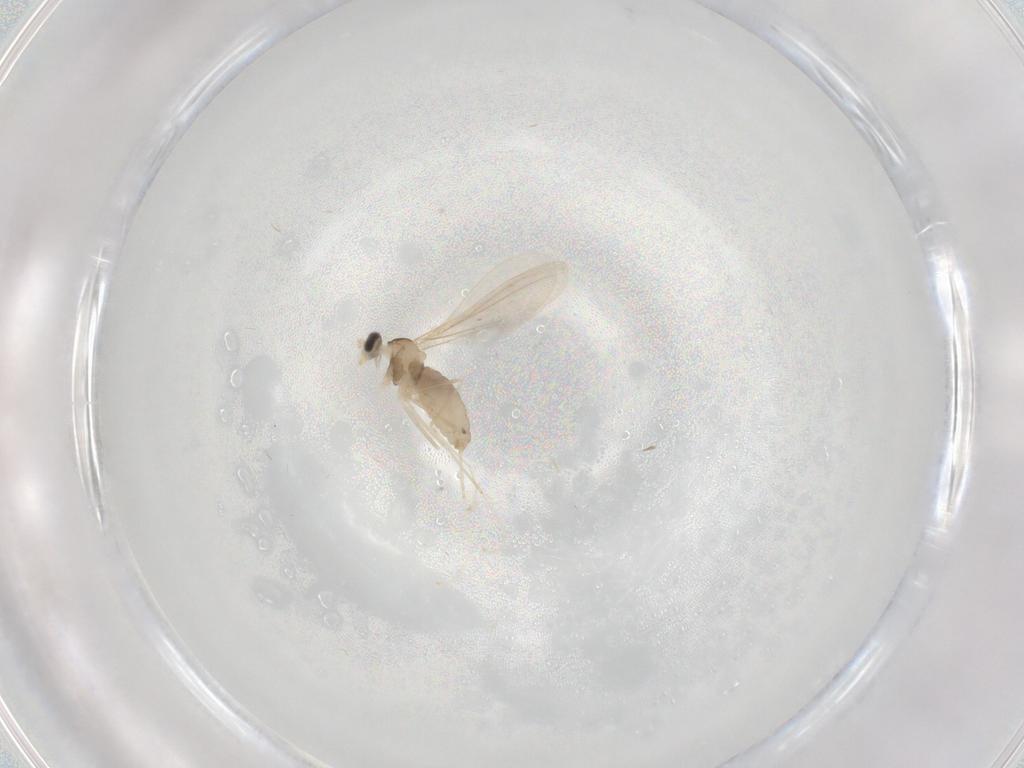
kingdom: Animalia
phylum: Arthropoda
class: Insecta
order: Diptera
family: Cecidomyiidae
